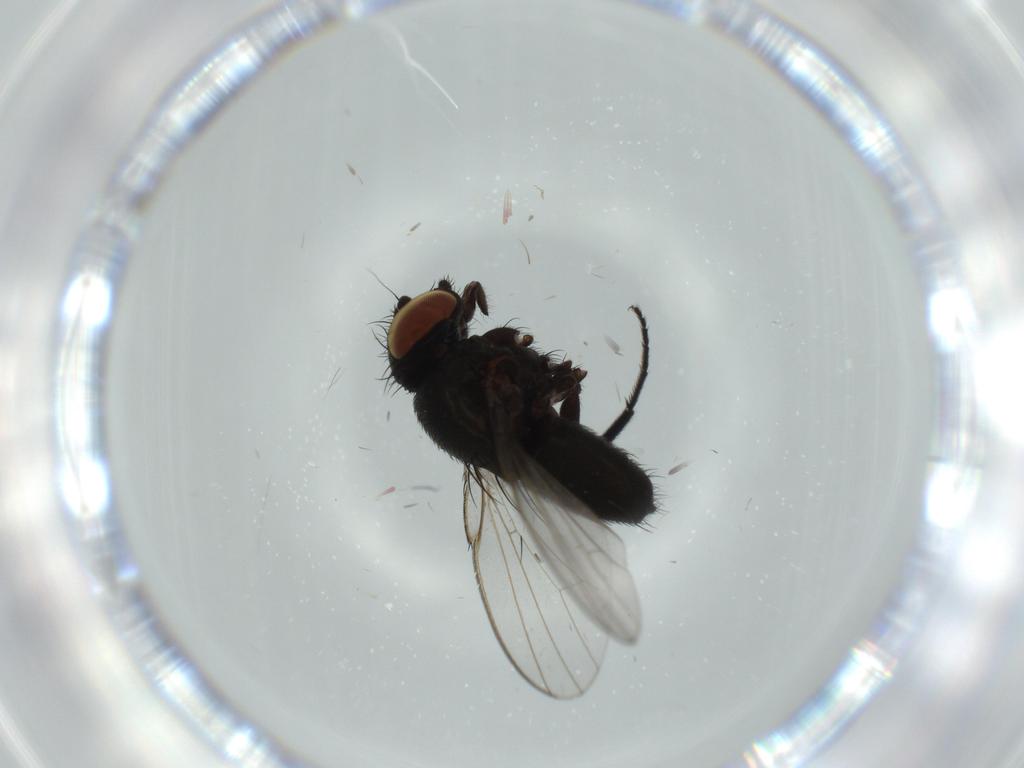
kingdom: Animalia
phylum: Arthropoda
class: Insecta
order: Diptera
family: Milichiidae
